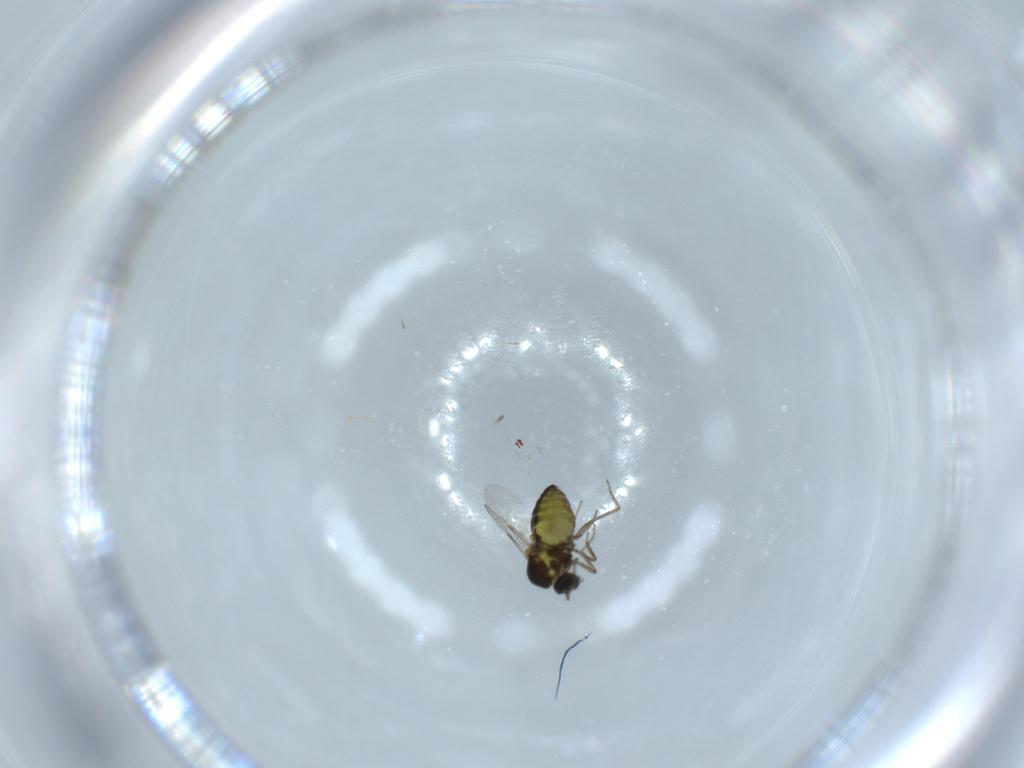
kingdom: Animalia
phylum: Arthropoda
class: Insecta
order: Diptera
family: Ceratopogonidae
